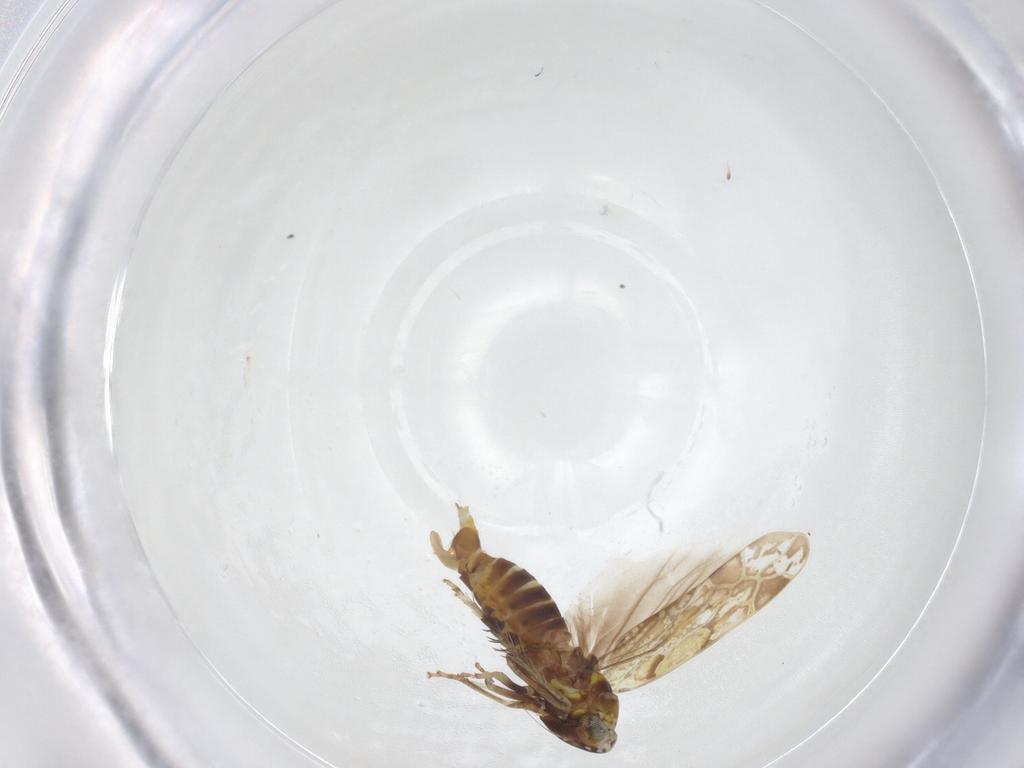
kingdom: Animalia
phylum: Arthropoda
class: Insecta
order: Hemiptera
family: Cicadellidae
